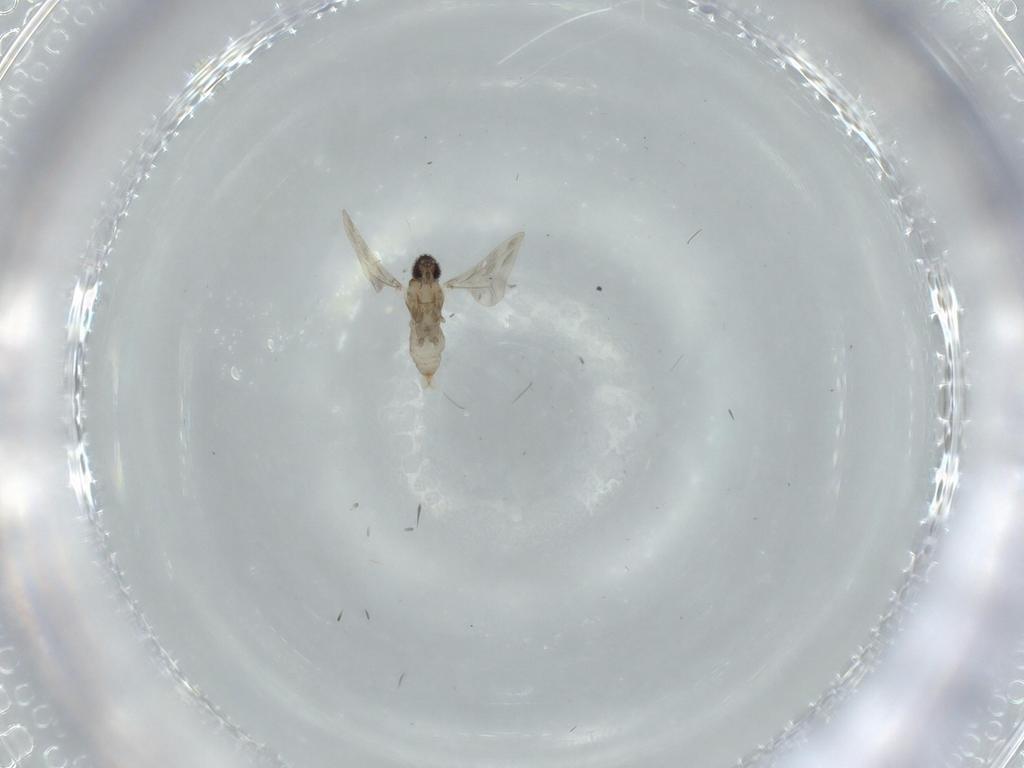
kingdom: Animalia
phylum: Arthropoda
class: Insecta
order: Diptera
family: Cecidomyiidae
